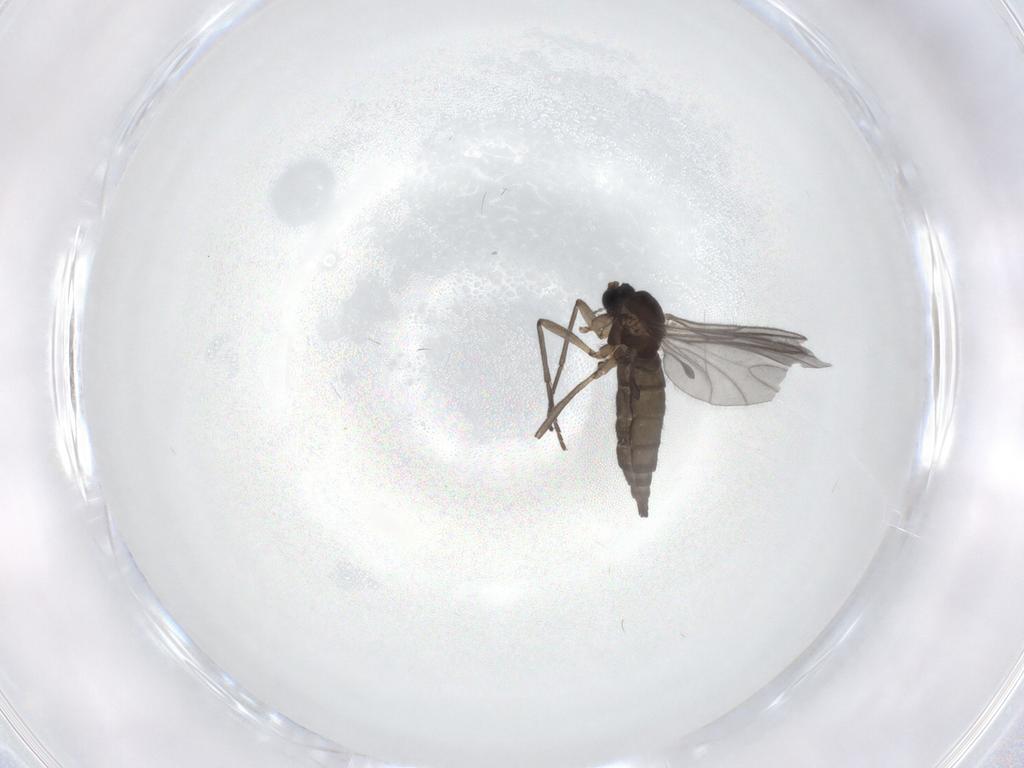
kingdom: Animalia
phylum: Arthropoda
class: Insecta
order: Diptera
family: Sciaridae
